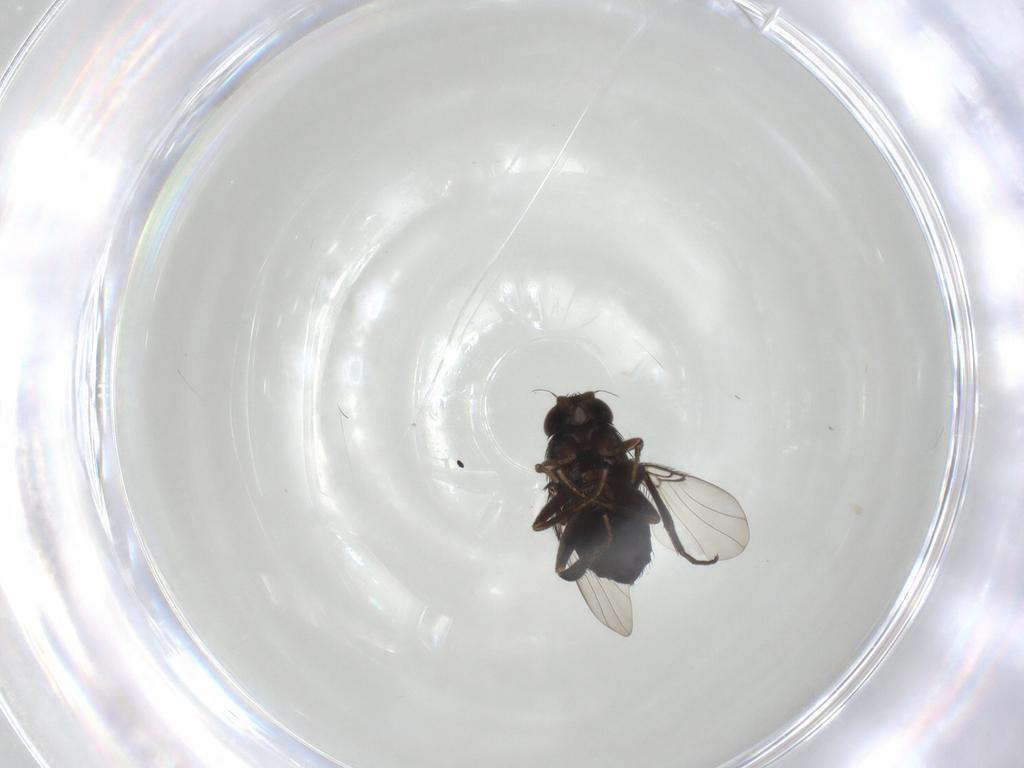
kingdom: Animalia
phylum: Arthropoda
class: Insecta
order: Diptera
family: Phoridae
